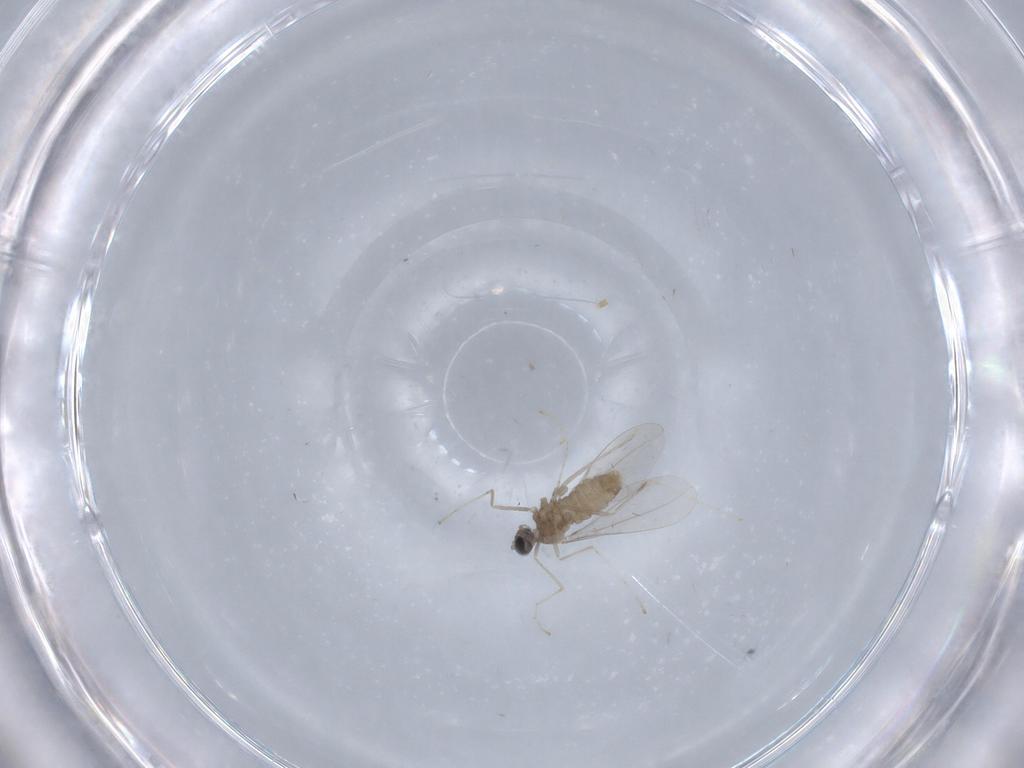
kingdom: Animalia
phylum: Arthropoda
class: Insecta
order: Diptera
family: Cecidomyiidae
